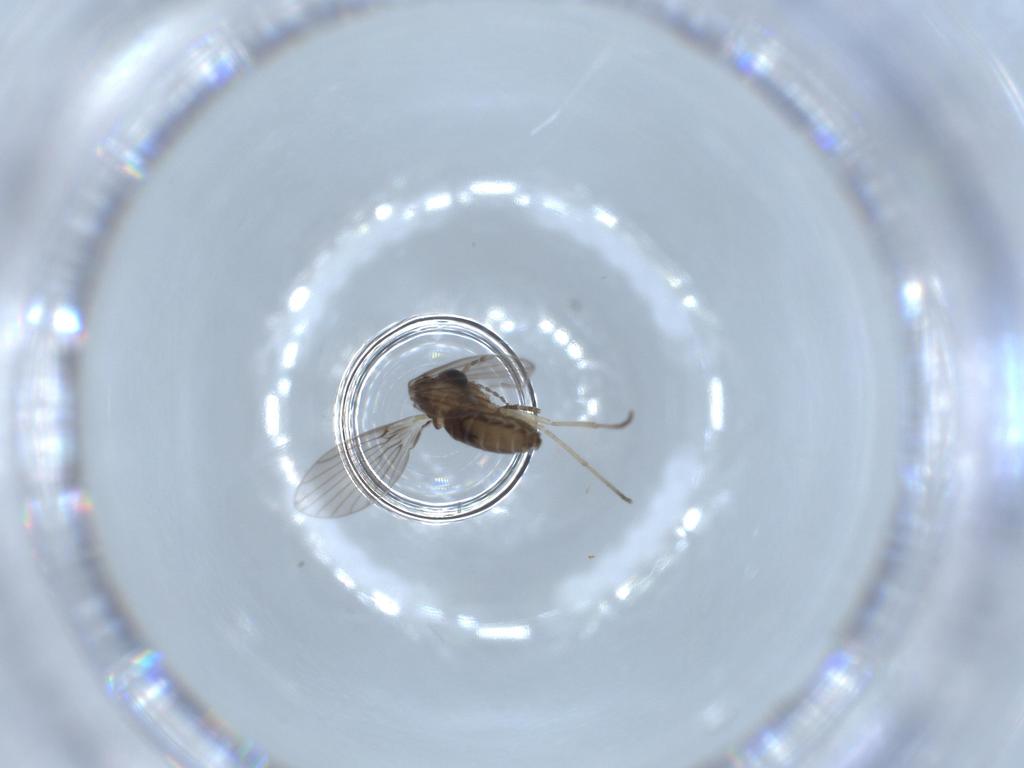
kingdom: Animalia
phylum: Arthropoda
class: Insecta
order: Diptera
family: Psychodidae
